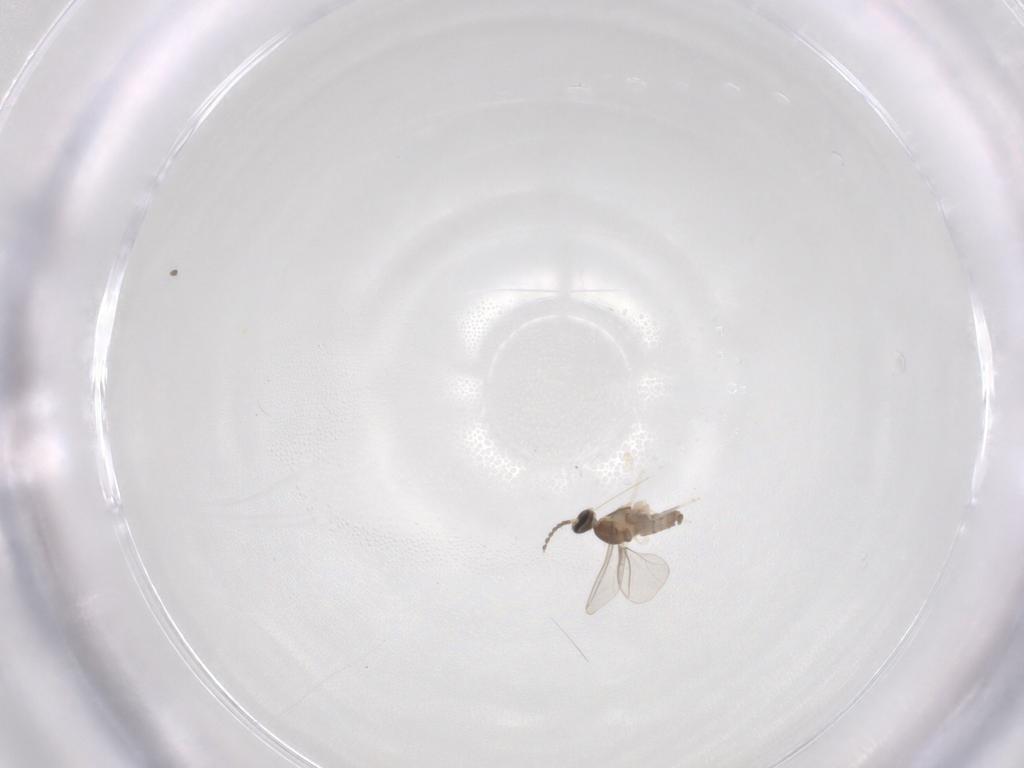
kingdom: Animalia
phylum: Arthropoda
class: Insecta
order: Diptera
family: Cecidomyiidae
